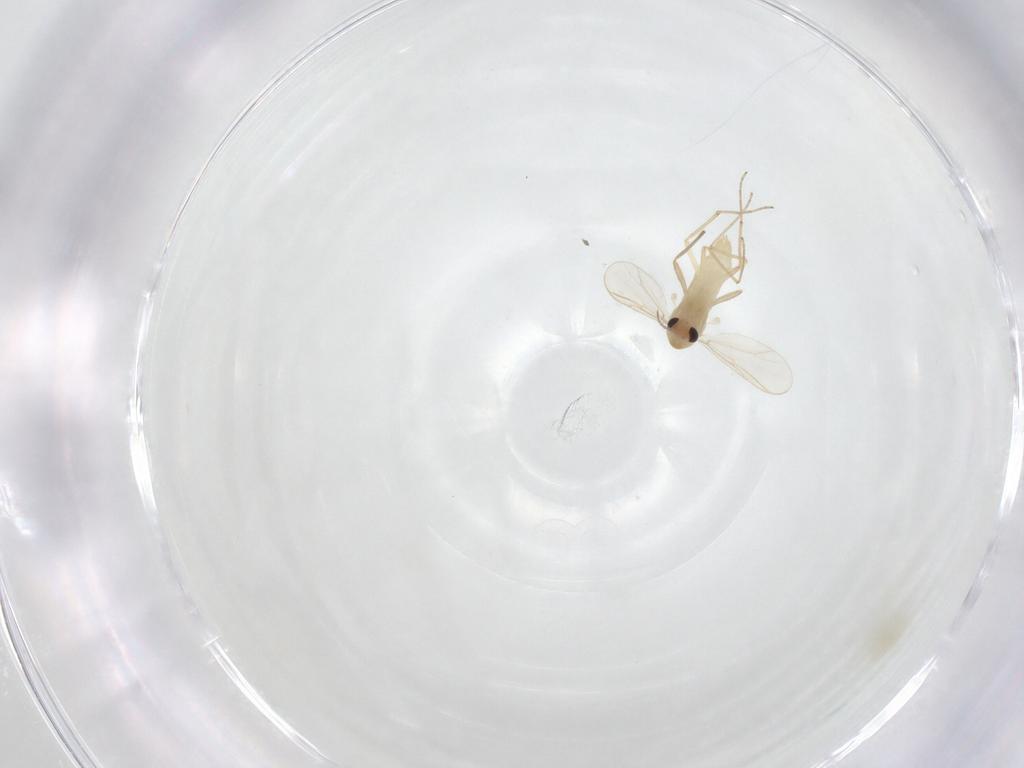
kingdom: Animalia
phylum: Arthropoda
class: Insecta
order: Diptera
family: Chironomidae
